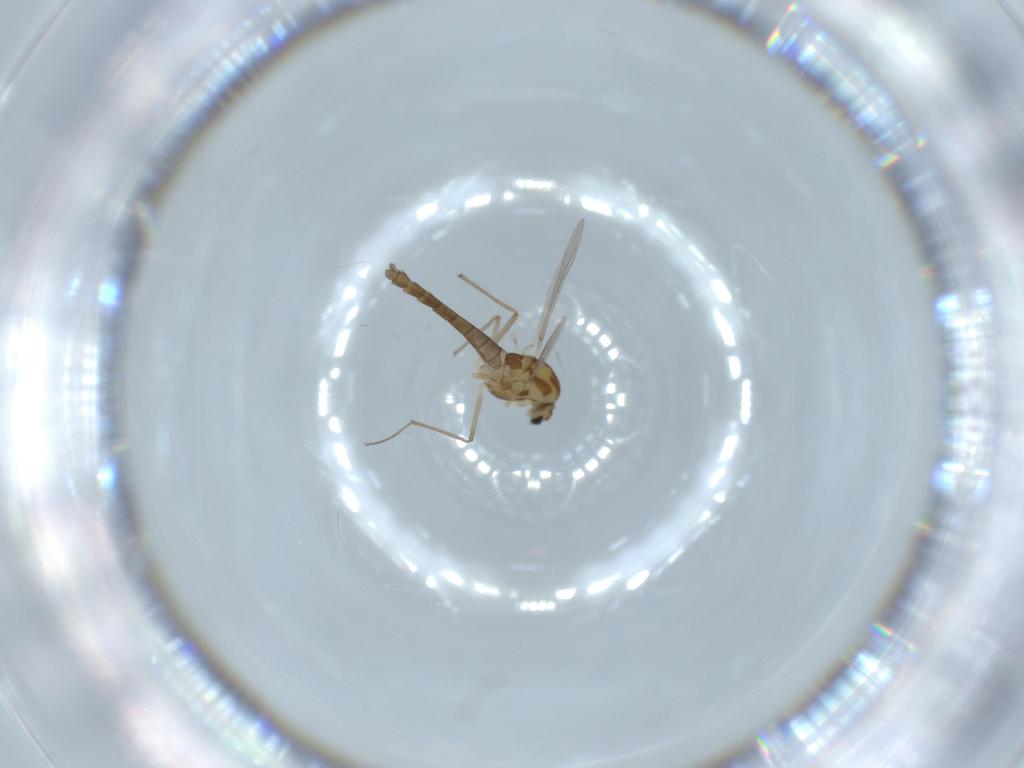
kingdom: Animalia
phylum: Arthropoda
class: Insecta
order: Diptera
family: Chironomidae
